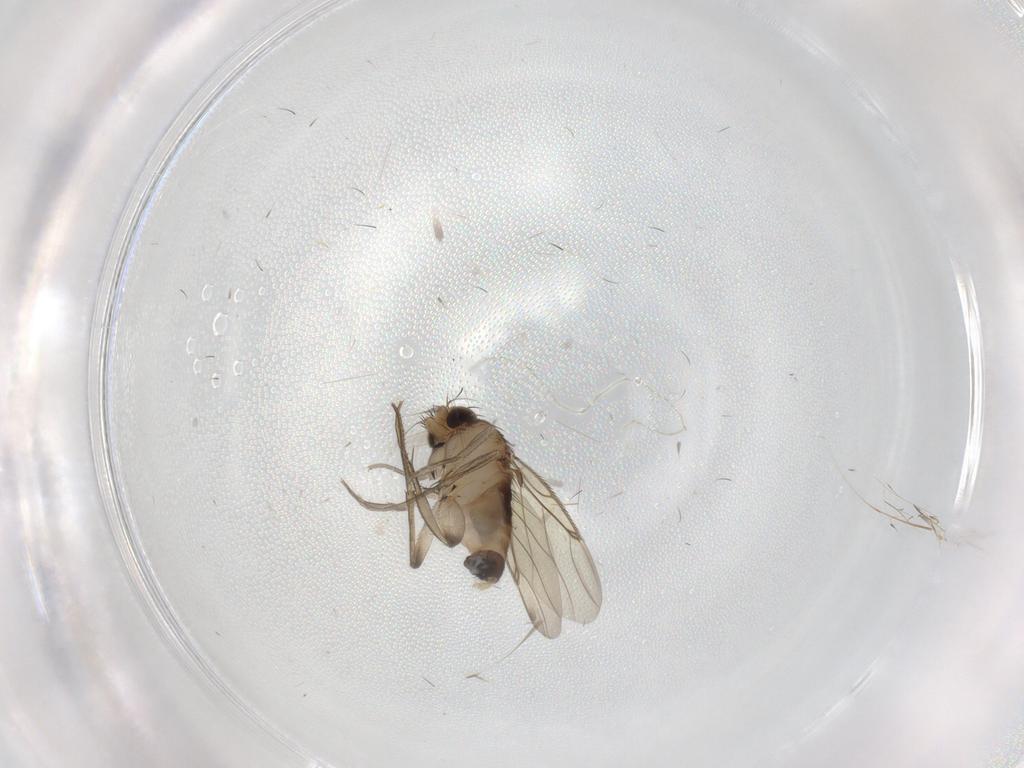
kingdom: Animalia
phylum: Arthropoda
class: Insecta
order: Diptera
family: Phoridae
